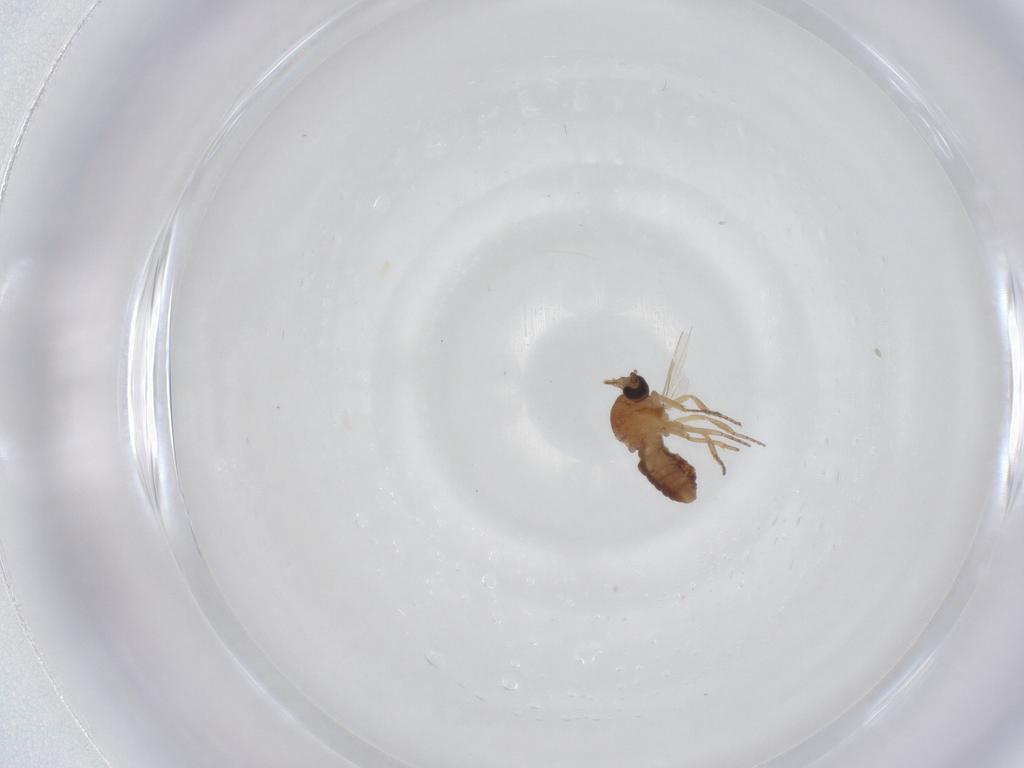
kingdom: Animalia
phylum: Arthropoda
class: Insecta
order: Diptera
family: Ceratopogonidae
